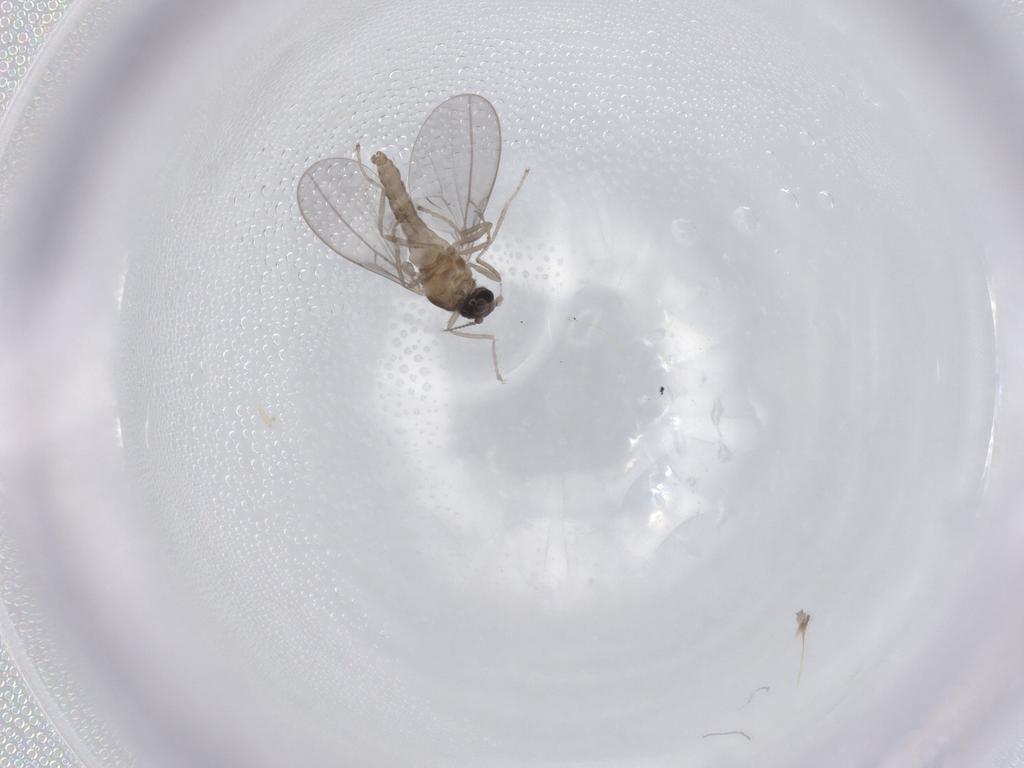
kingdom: Animalia
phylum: Arthropoda
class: Insecta
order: Diptera
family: Cecidomyiidae
